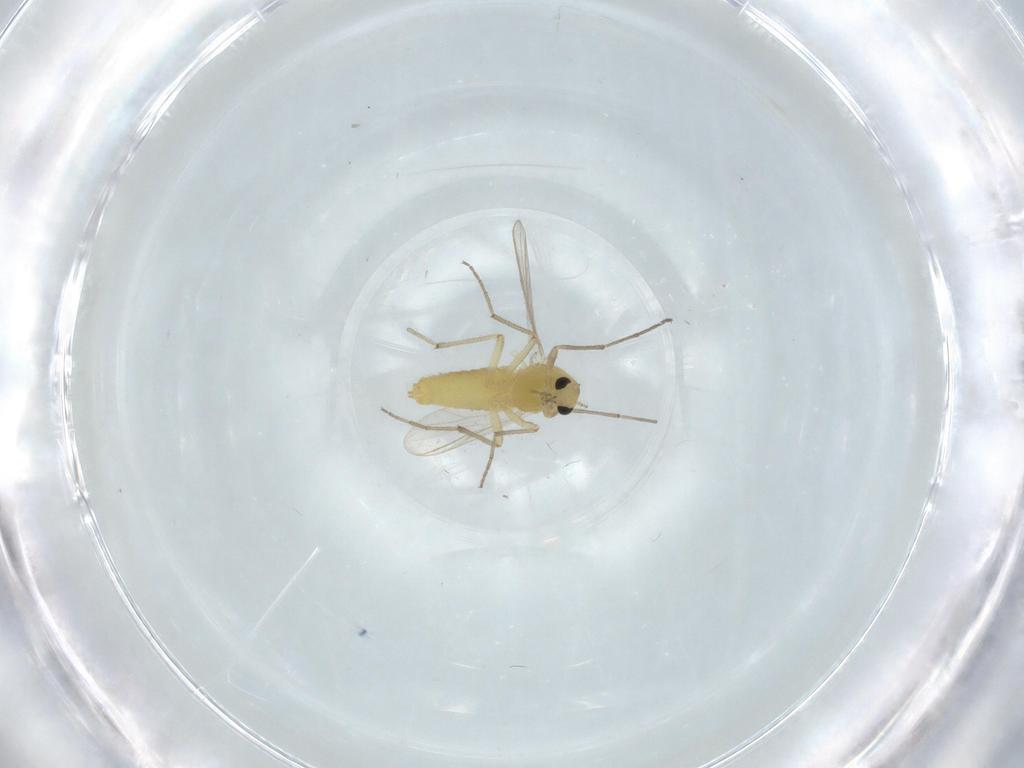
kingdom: Animalia
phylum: Arthropoda
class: Insecta
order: Diptera
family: Chironomidae
